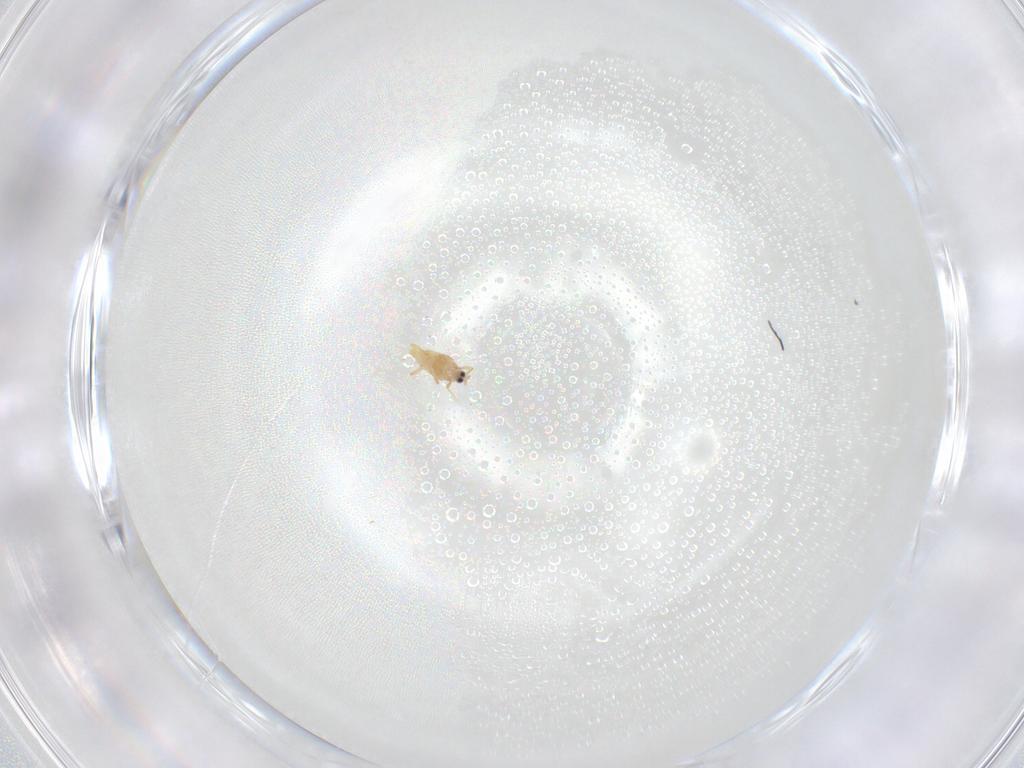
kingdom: Animalia
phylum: Arthropoda
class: Insecta
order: Hemiptera
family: Diaspididae
